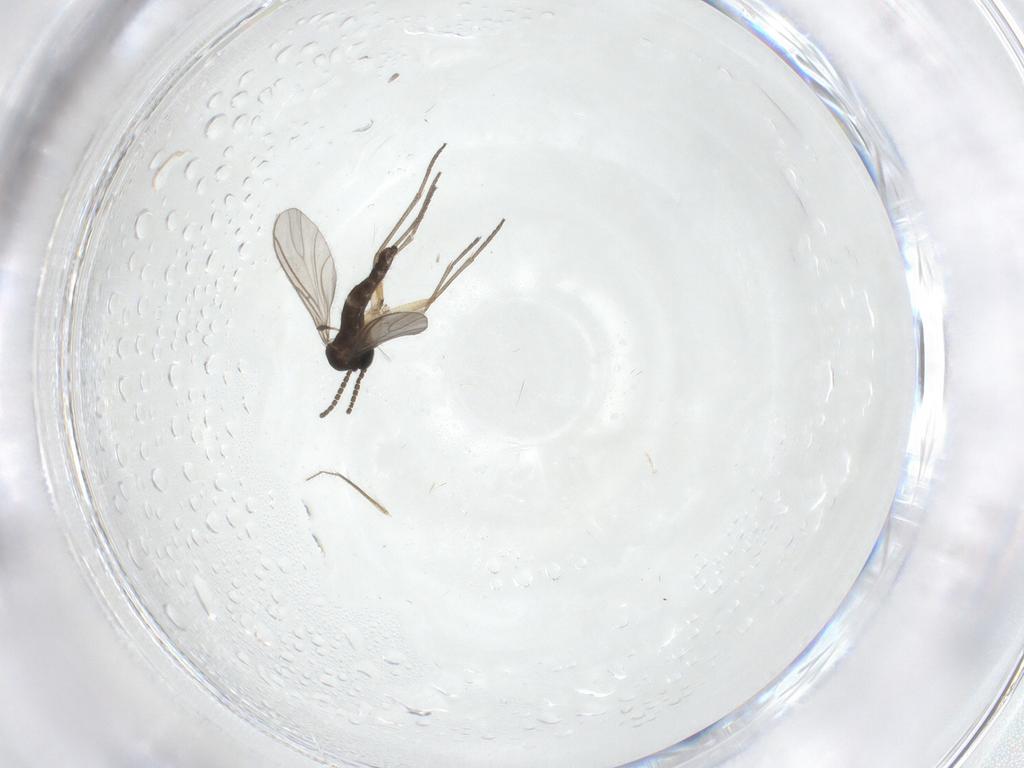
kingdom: Animalia
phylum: Arthropoda
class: Insecta
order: Diptera
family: Sciaridae
